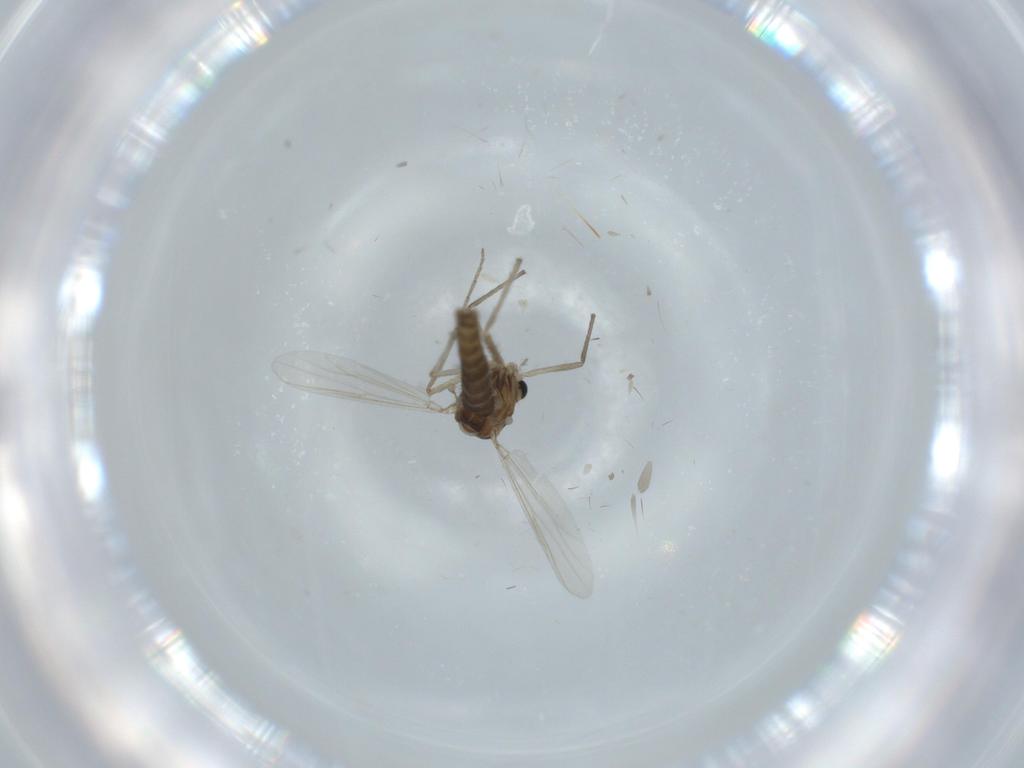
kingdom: Animalia
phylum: Arthropoda
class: Insecta
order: Diptera
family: Chironomidae
